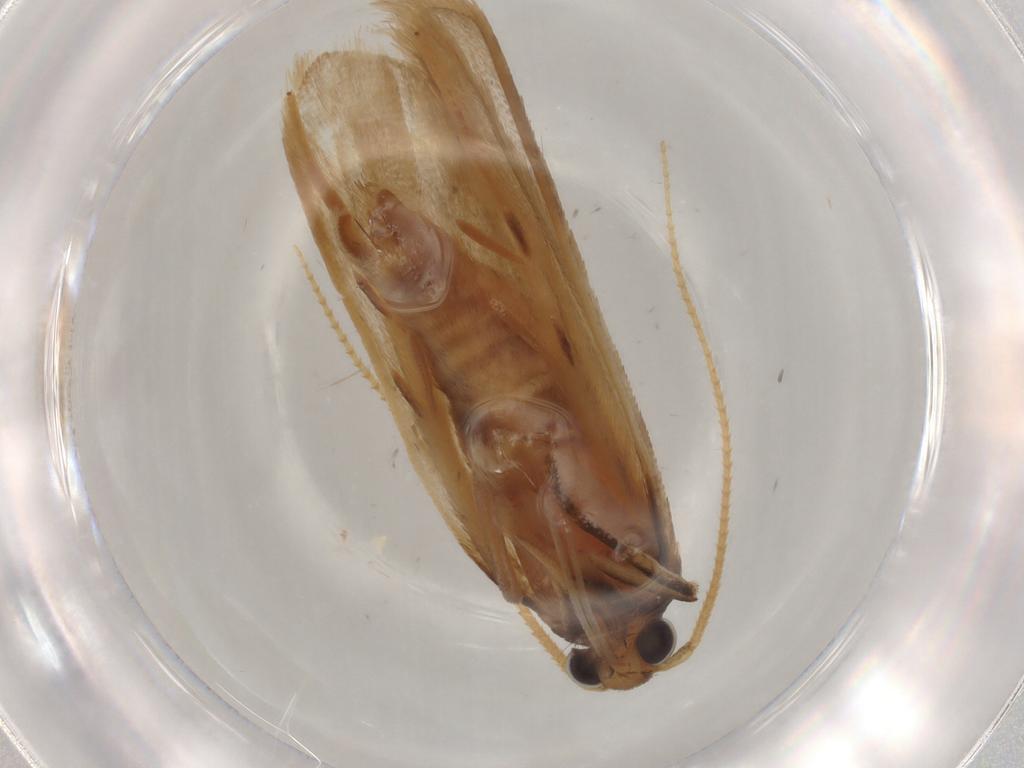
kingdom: Animalia
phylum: Arthropoda
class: Insecta
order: Lepidoptera
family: Lecithoceridae
